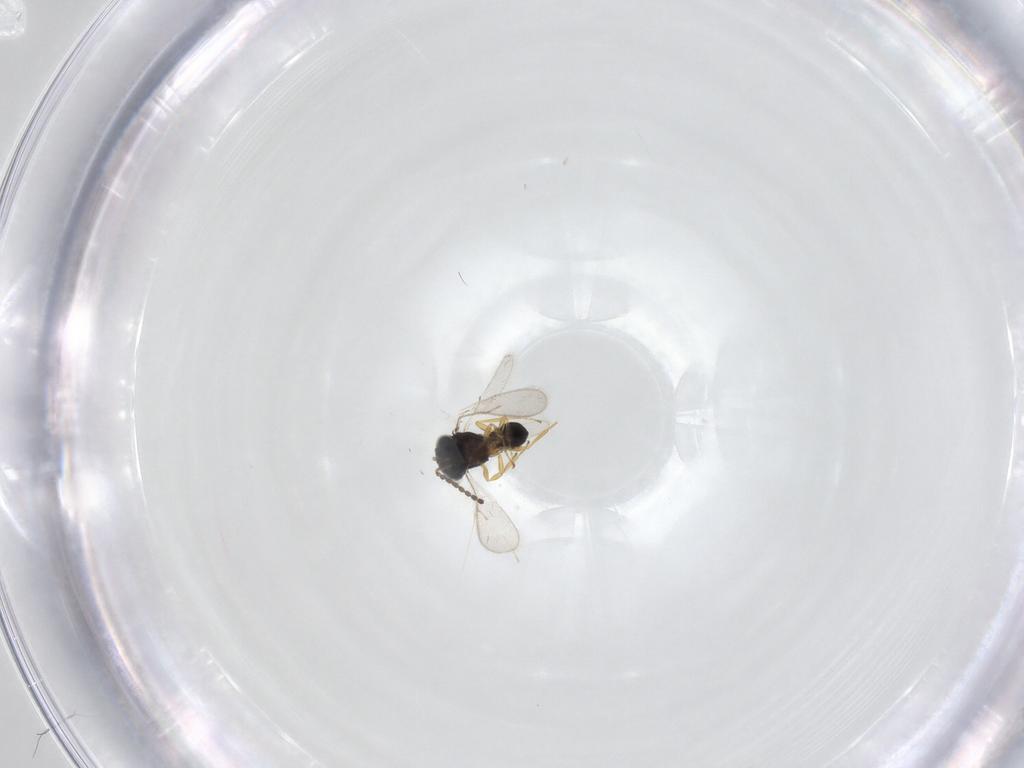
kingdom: Animalia
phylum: Arthropoda
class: Insecta
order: Hymenoptera
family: Scelionidae
